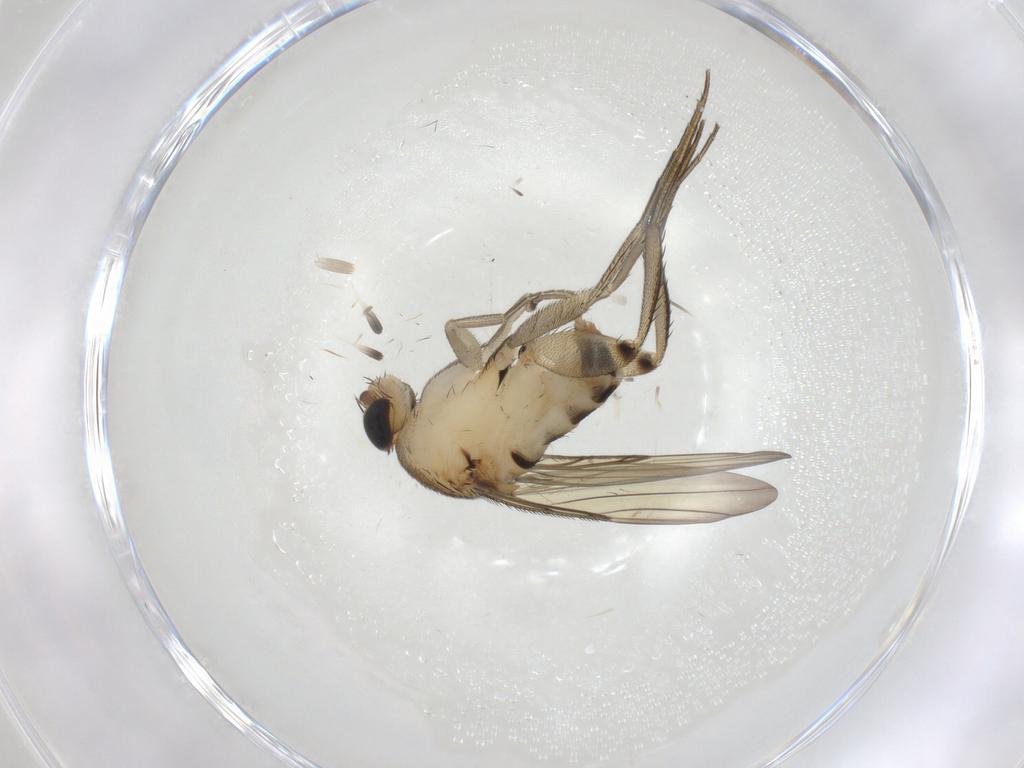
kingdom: Animalia
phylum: Arthropoda
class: Insecta
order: Diptera
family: Phoridae
